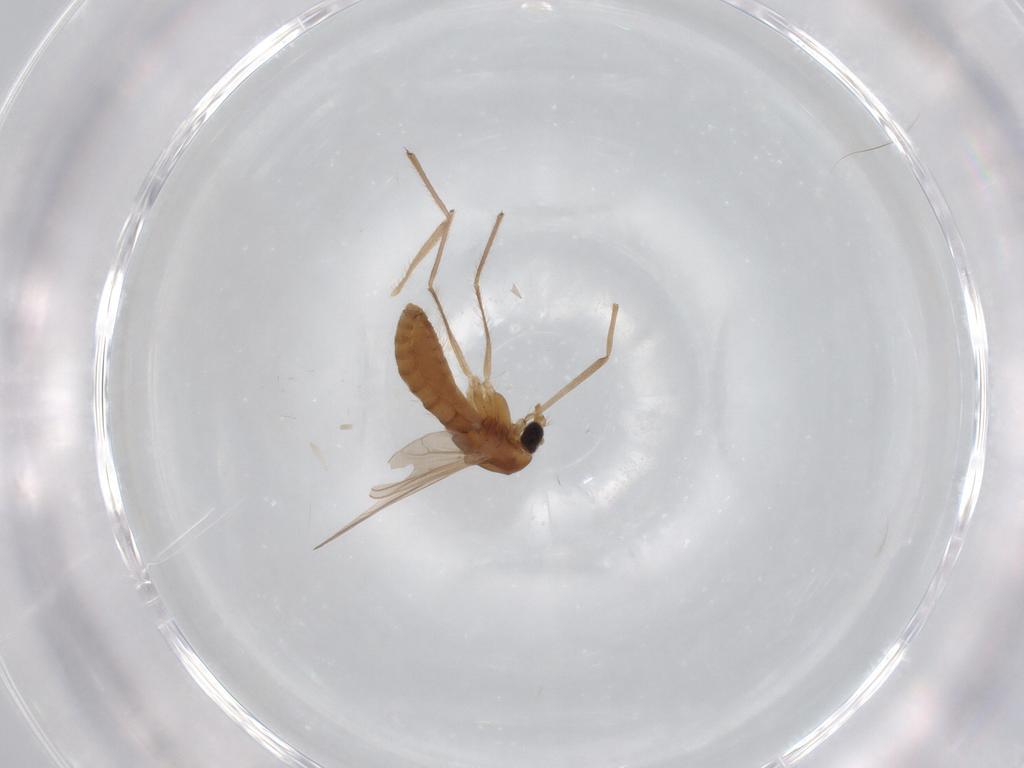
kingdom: Animalia
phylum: Arthropoda
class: Insecta
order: Diptera
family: Chironomidae
